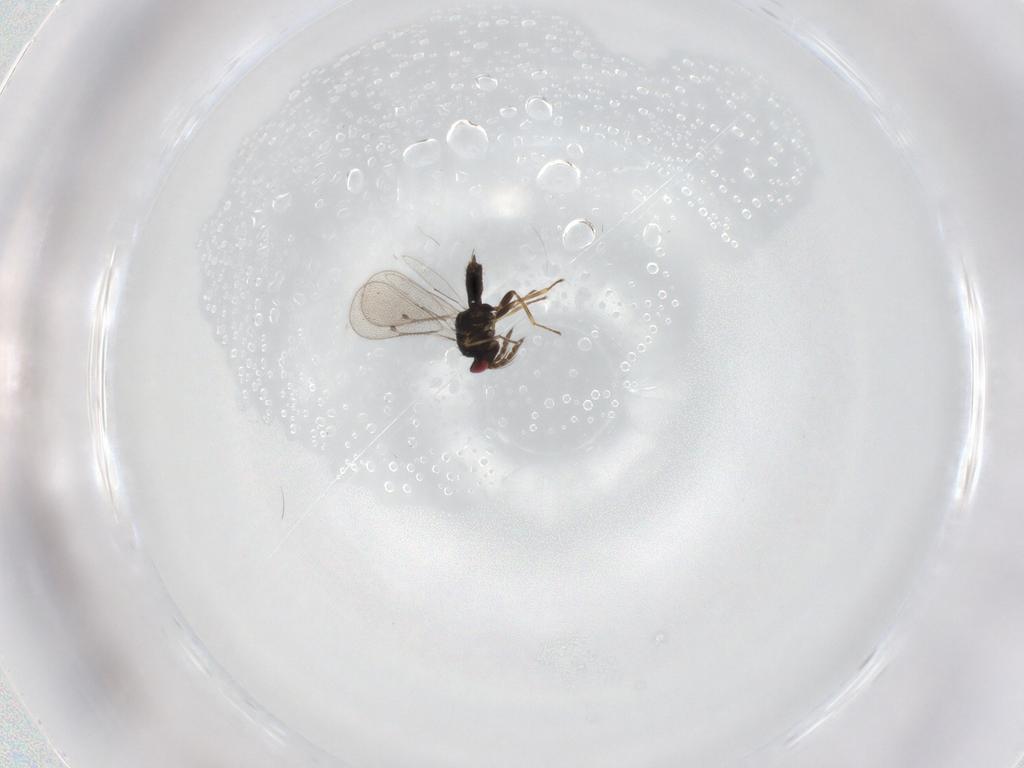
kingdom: Animalia
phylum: Arthropoda
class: Insecta
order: Hymenoptera
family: Eulophidae
